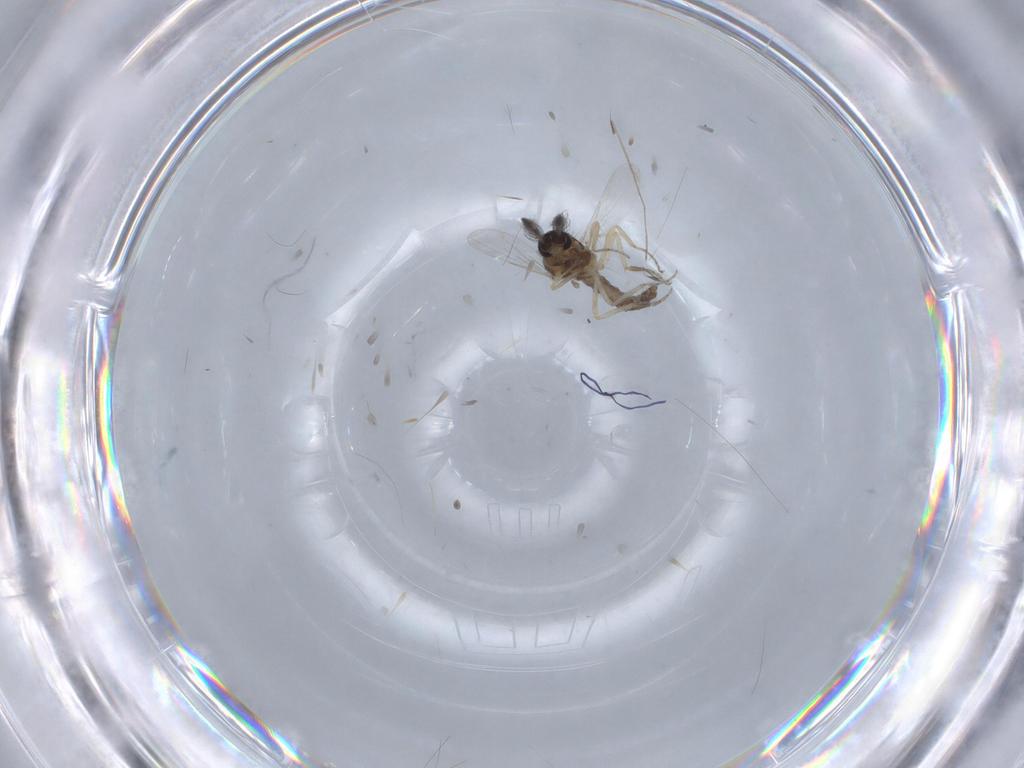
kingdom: Animalia
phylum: Arthropoda
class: Insecta
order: Diptera
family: Ceratopogonidae
